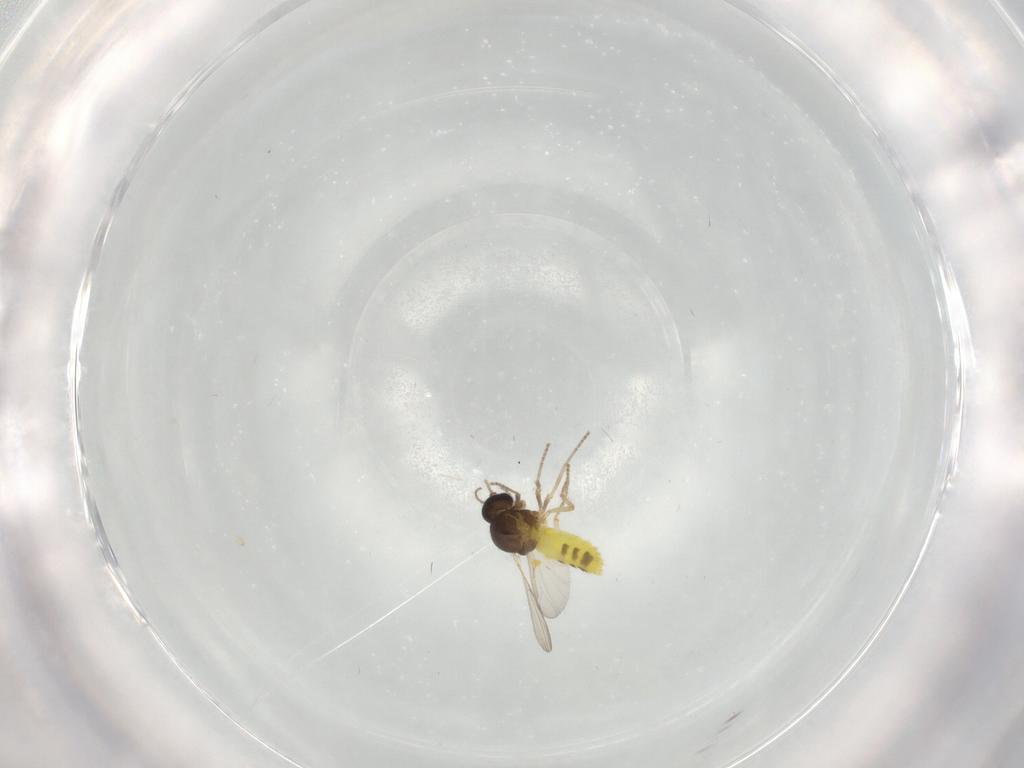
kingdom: Animalia
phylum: Arthropoda
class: Insecta
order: Diptera
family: Ceratopogonidae
